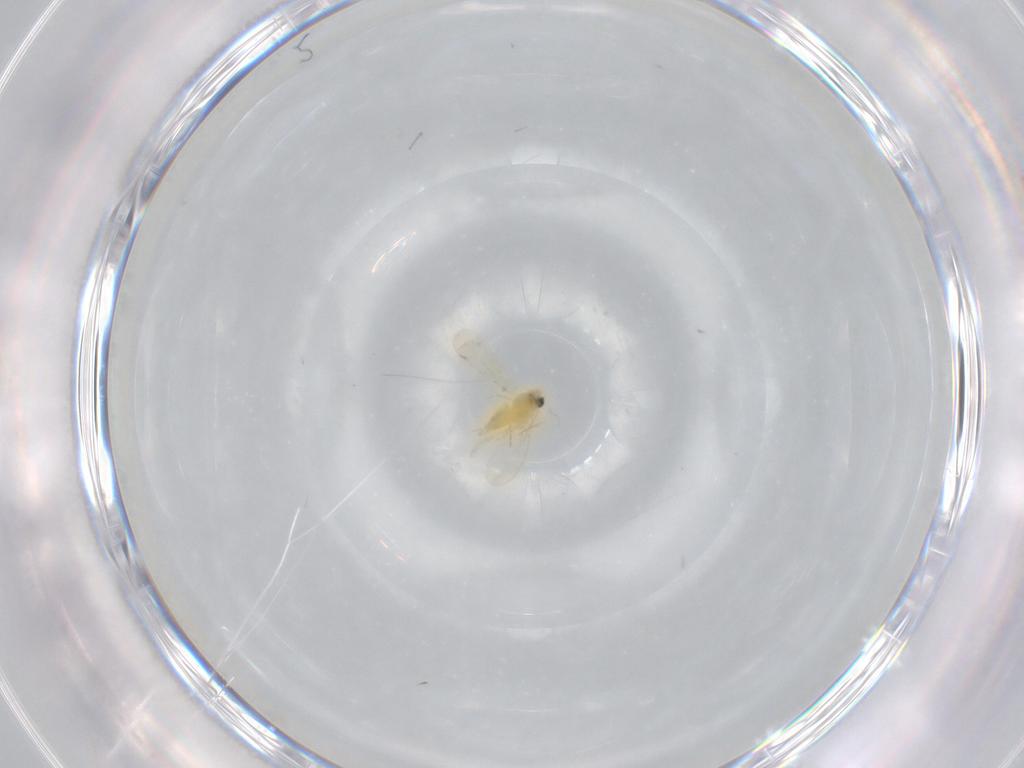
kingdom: Animalia
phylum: Arthropoda
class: Insecta
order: Hemiptera
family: Aleyrodidae
